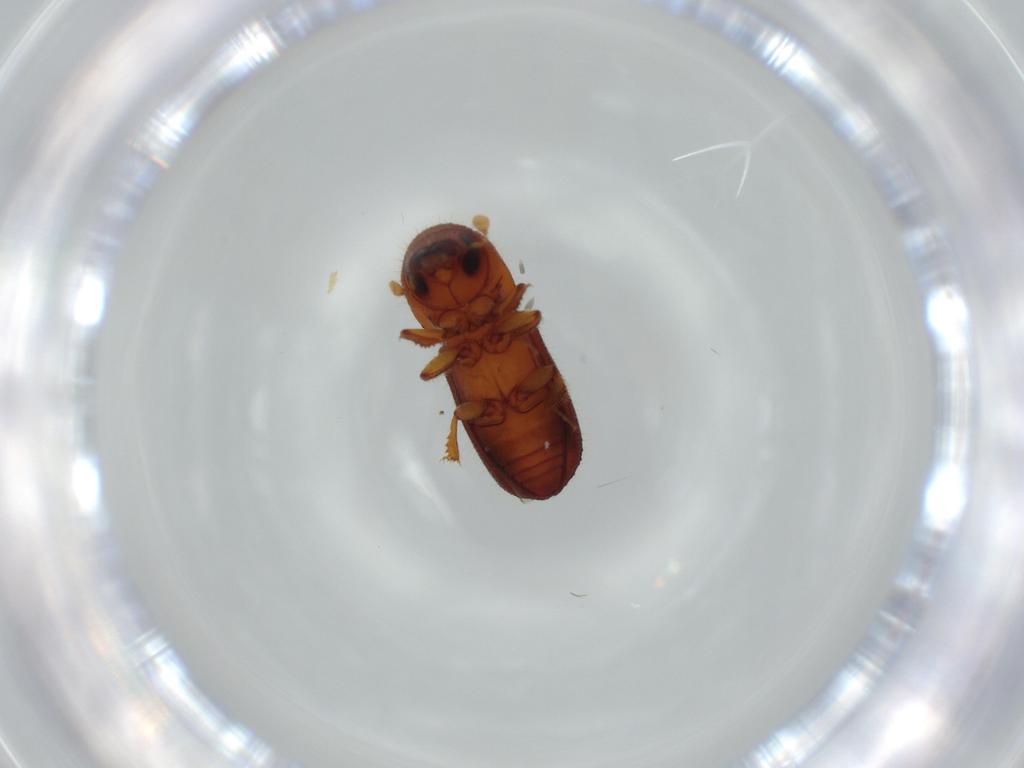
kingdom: Animalia
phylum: Arthropoda
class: Insecta
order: Coleoptera
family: Ptilodactylidae
